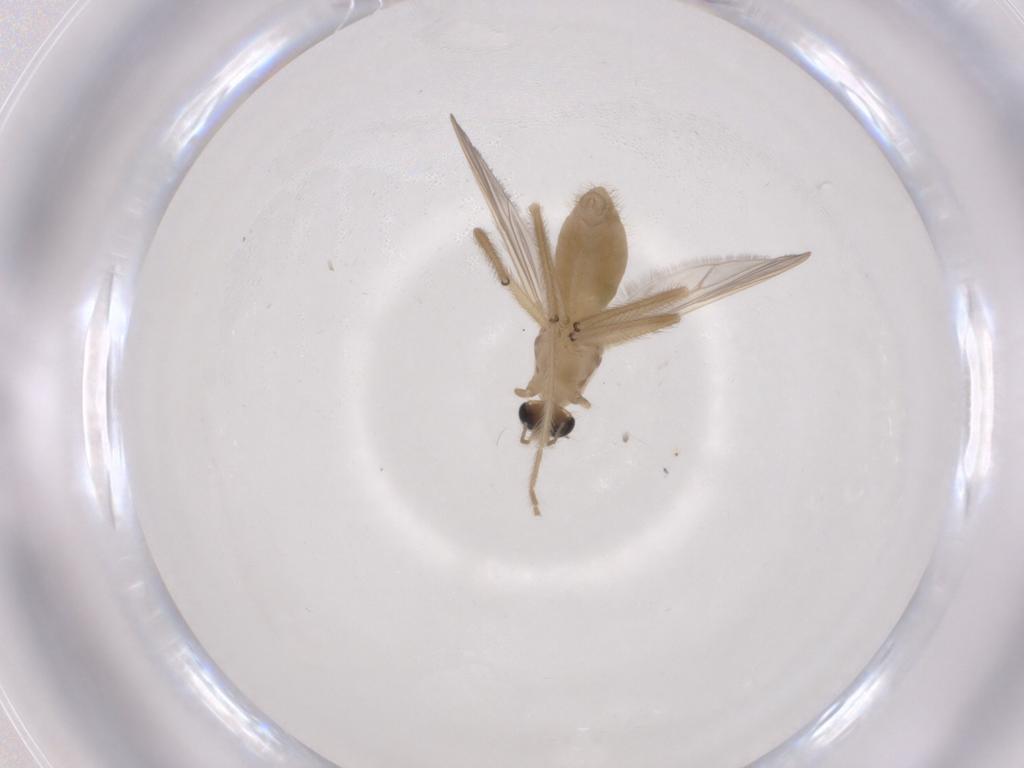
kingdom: Animalia
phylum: Arthropoda
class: Insecta
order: Diptera
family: Chironomidae
